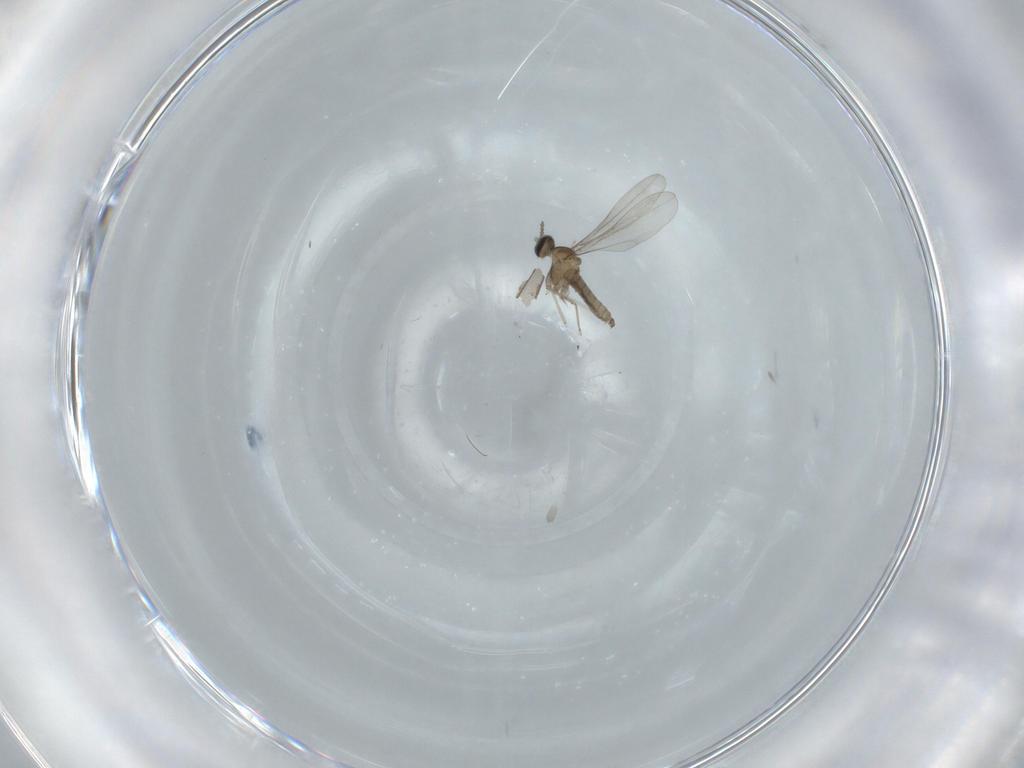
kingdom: Animalia
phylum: Arthropoda
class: Insecta
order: Diptera
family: Cecidomyiidae
